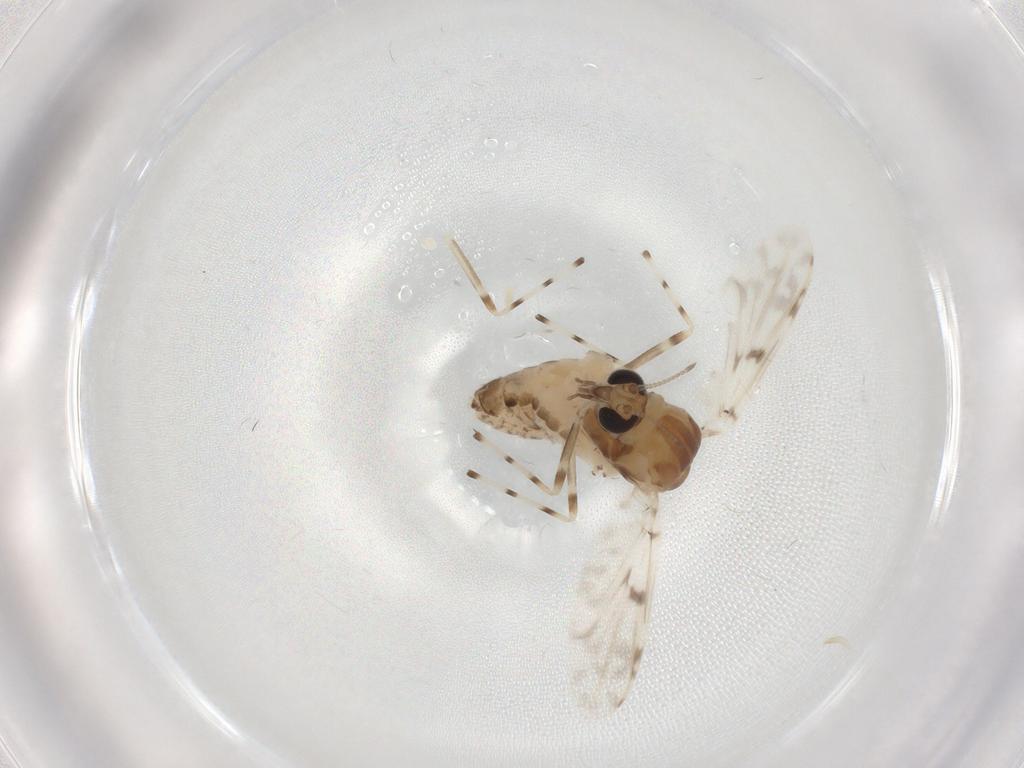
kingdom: Animalia
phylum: Arthropoda
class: Insecta
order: Diptera
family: Chironomidae
